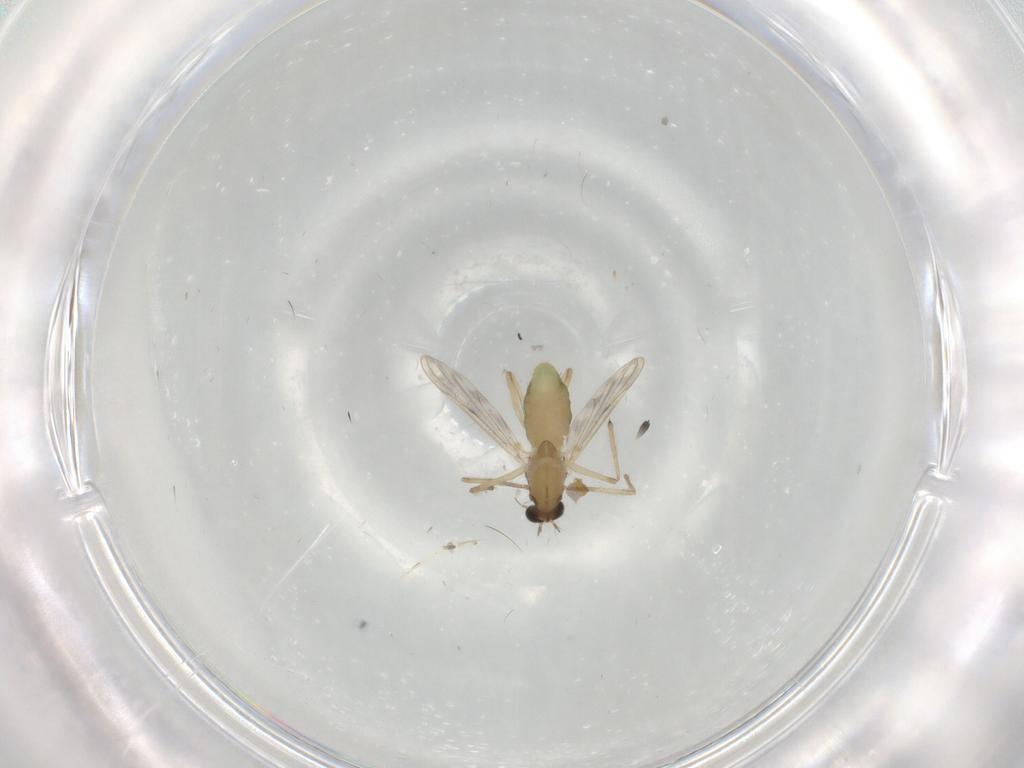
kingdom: Animalia
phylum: Arthropoda
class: Insecta
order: Diptera
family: Chironomidae
